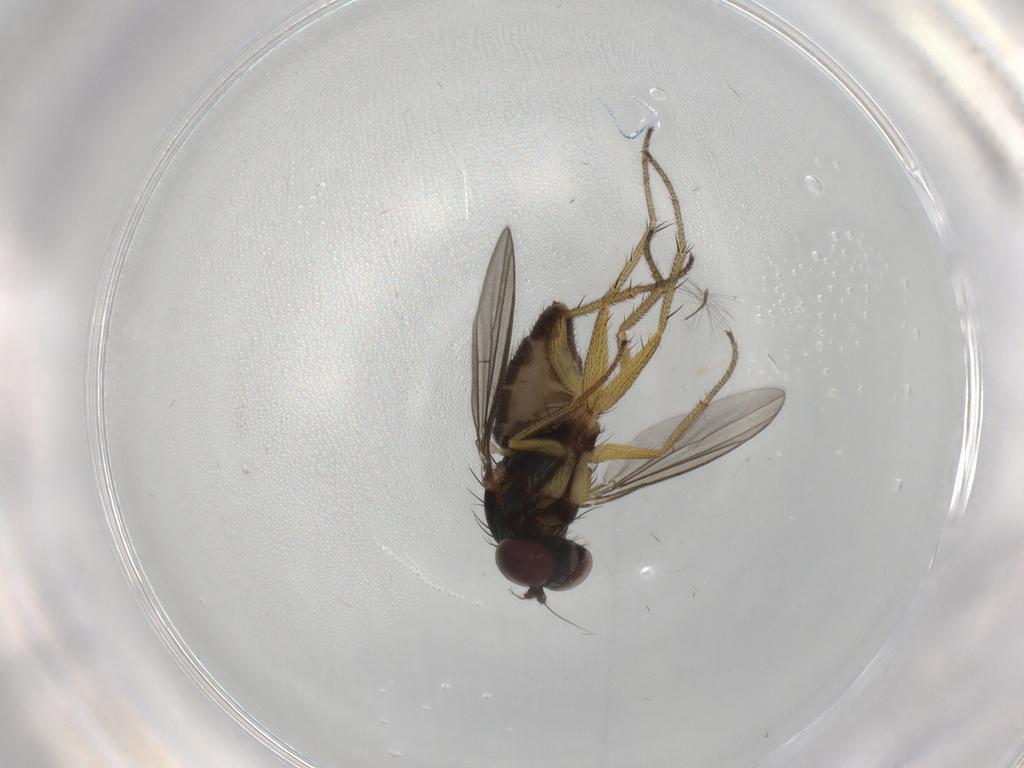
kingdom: Animalia
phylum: Arthropoda
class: Insecta
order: Diptera
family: Dolichopodidae
